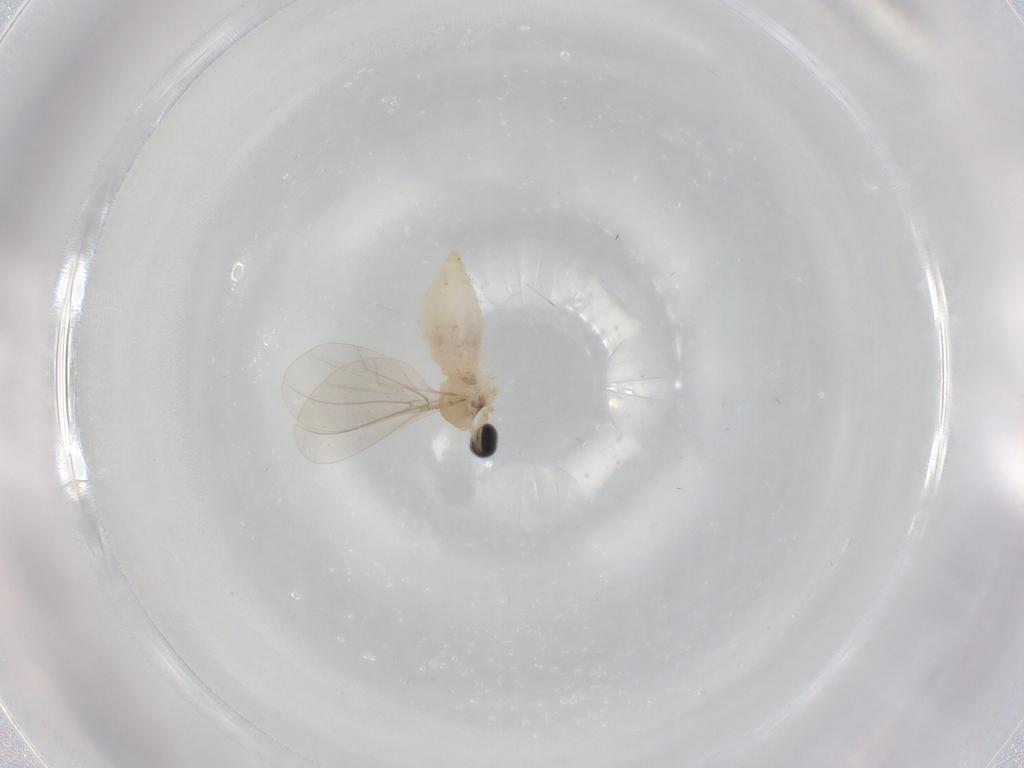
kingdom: Animalia
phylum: Arthropoda
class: Insecta
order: Diptera
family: Cecidomyiidae
